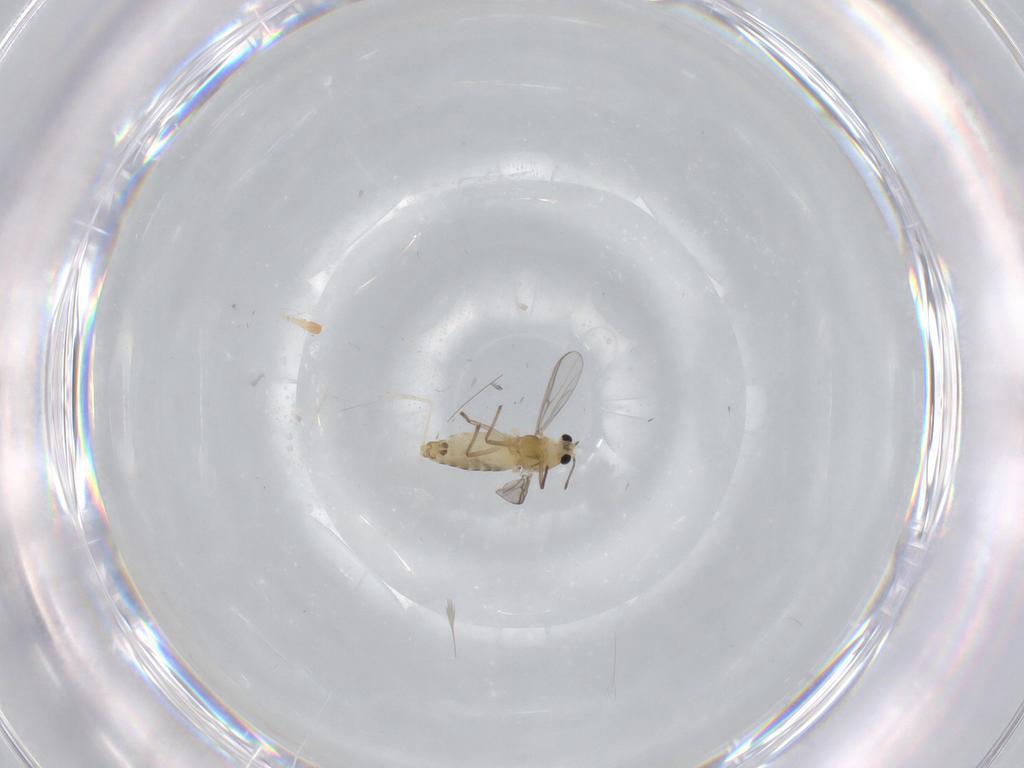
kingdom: Animalia
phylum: Arthropoda
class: Insecta
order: Diptera
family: Chironomidae
